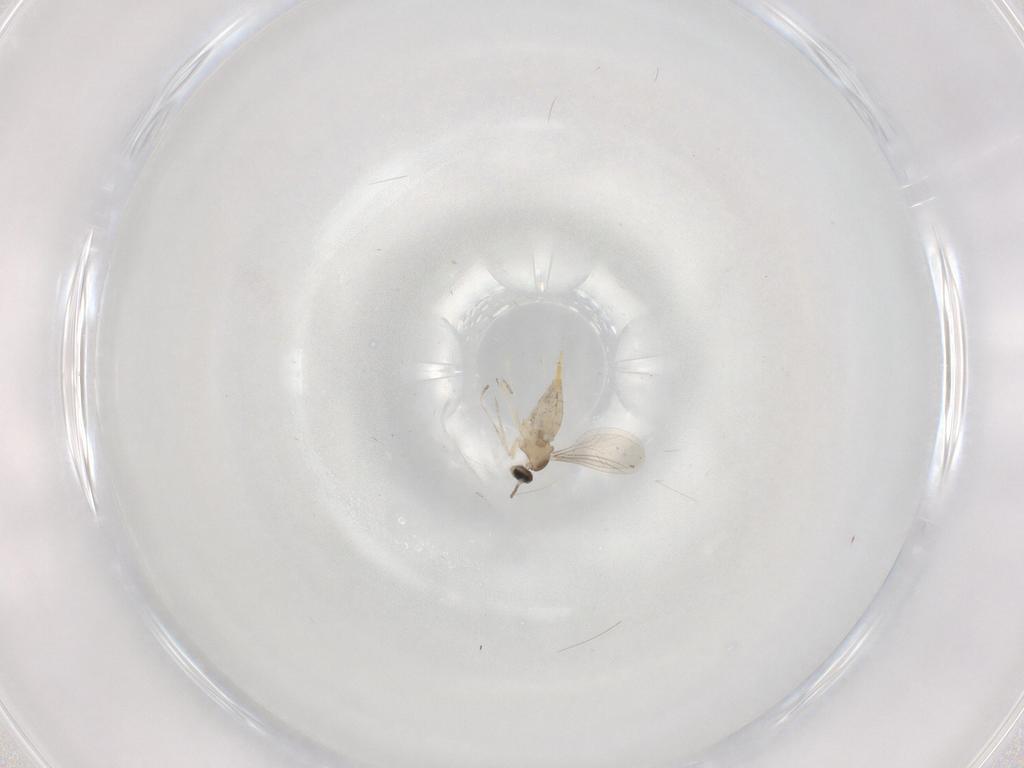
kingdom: Animalia
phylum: Arthropoda
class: Insecta
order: Diptera
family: Cecidomyiidae
